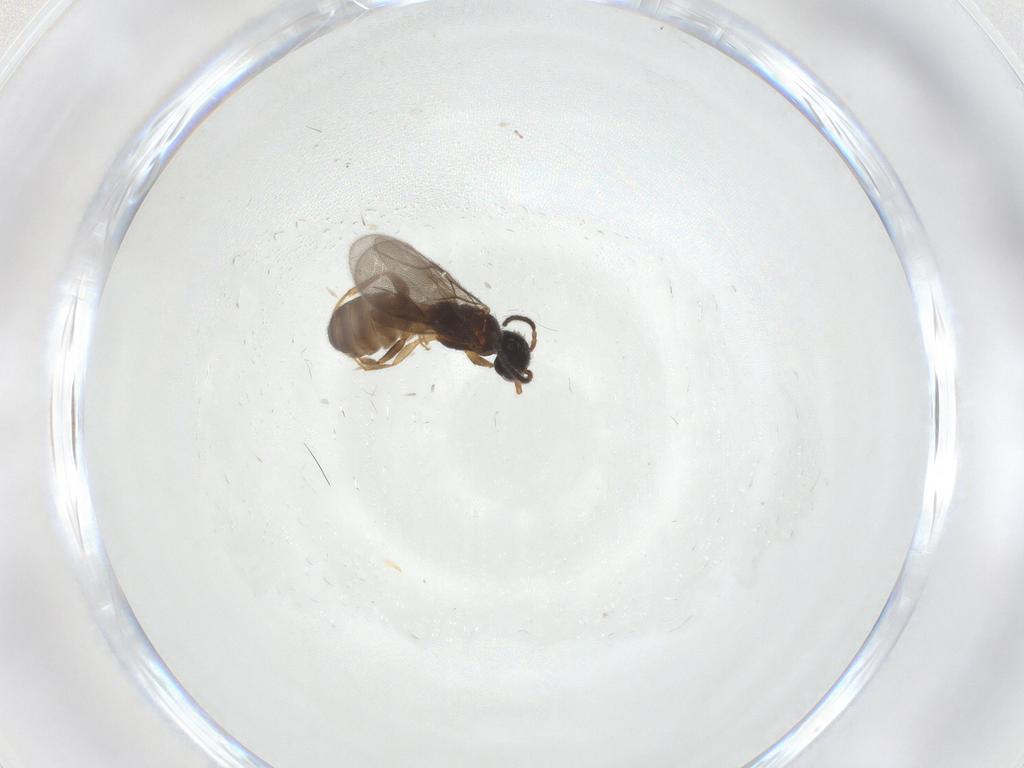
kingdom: Animalia
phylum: Arthropoda
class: Insecta
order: Hymenoptera
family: Bethylidae
